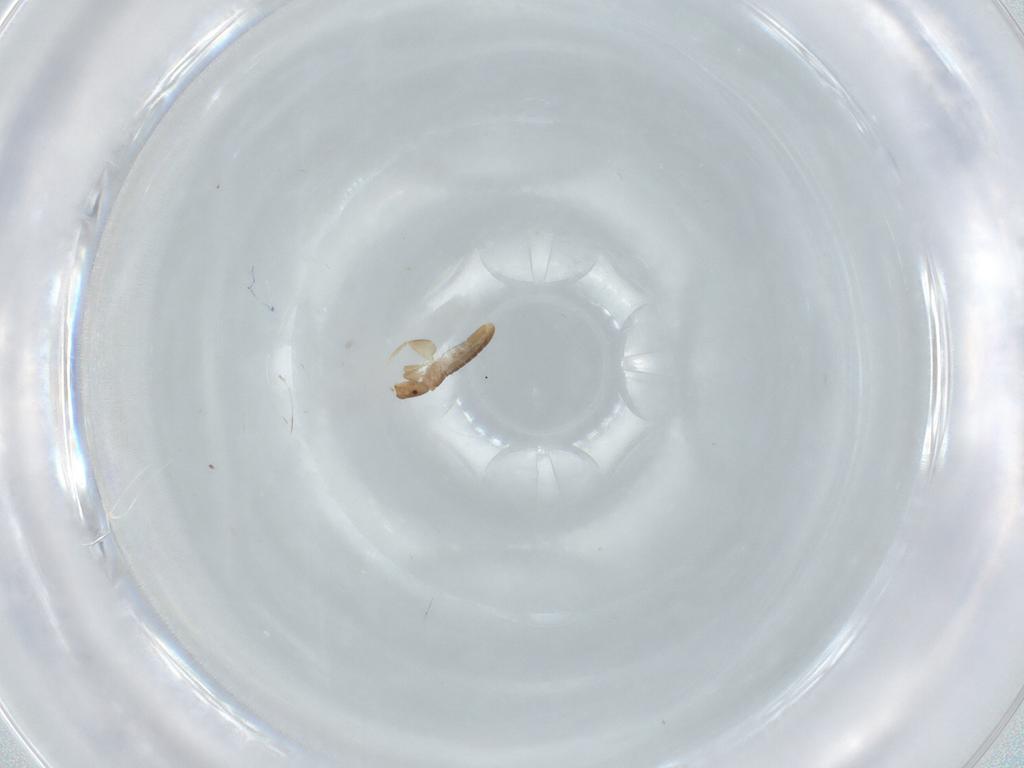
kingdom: Animalia
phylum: Arthropoda
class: Insecta
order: Psocodea
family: Liposcelididae
